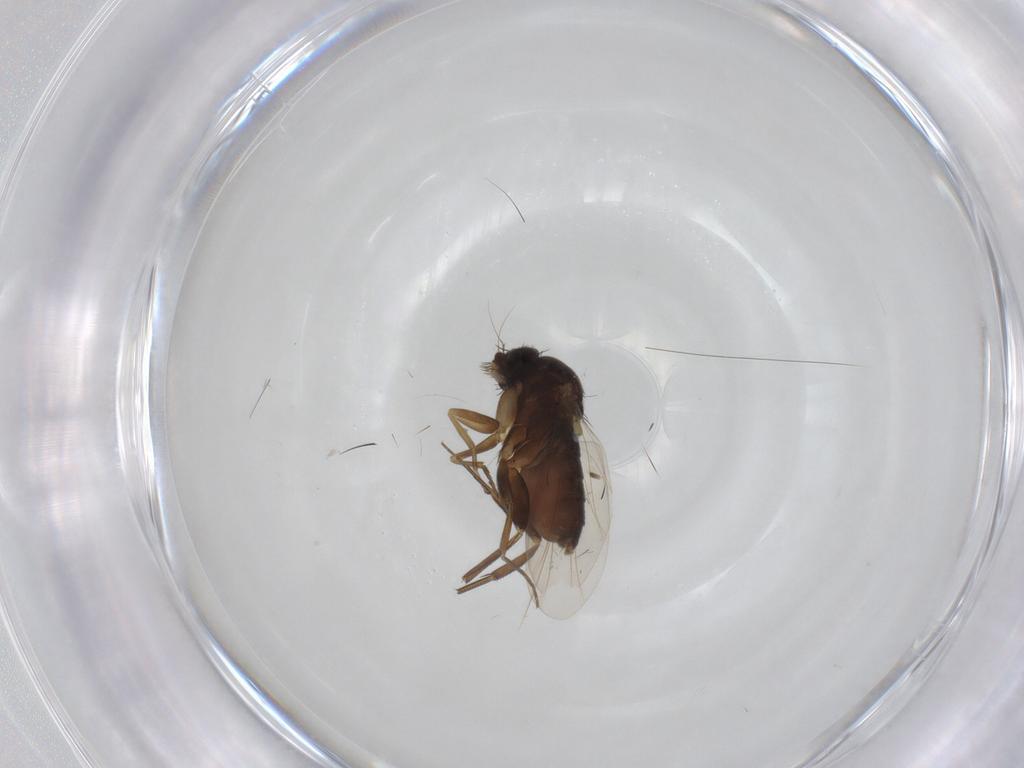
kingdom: Animalia
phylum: Arthropoda
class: Insecta
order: Diptera
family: Phoridae
